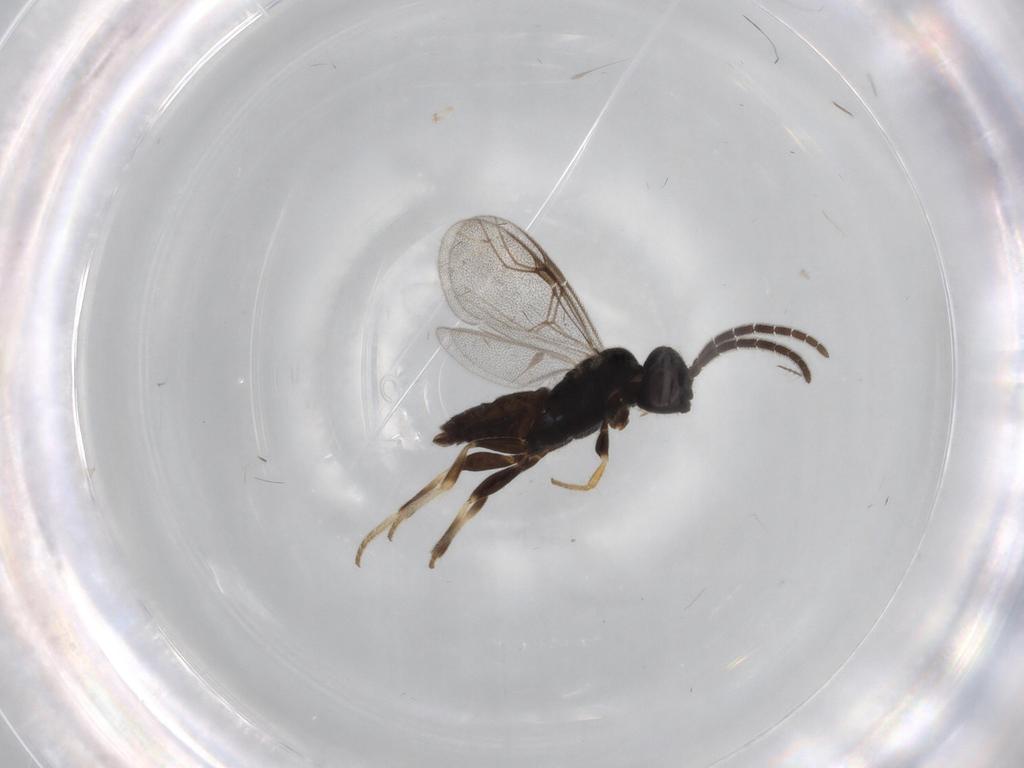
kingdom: Animalia
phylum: Arthropoda
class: Insecta
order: Hymenoptera
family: Dryinidae
